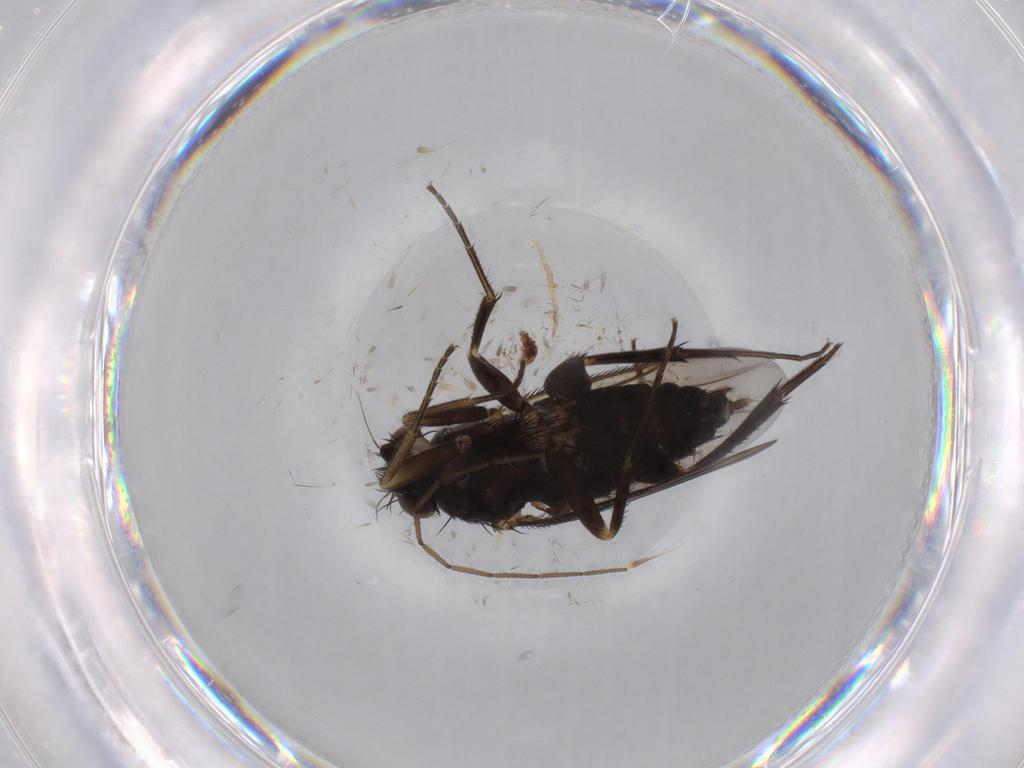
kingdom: Animalia
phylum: Arthropoda
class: Insecta
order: Diptera
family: Phoridae
